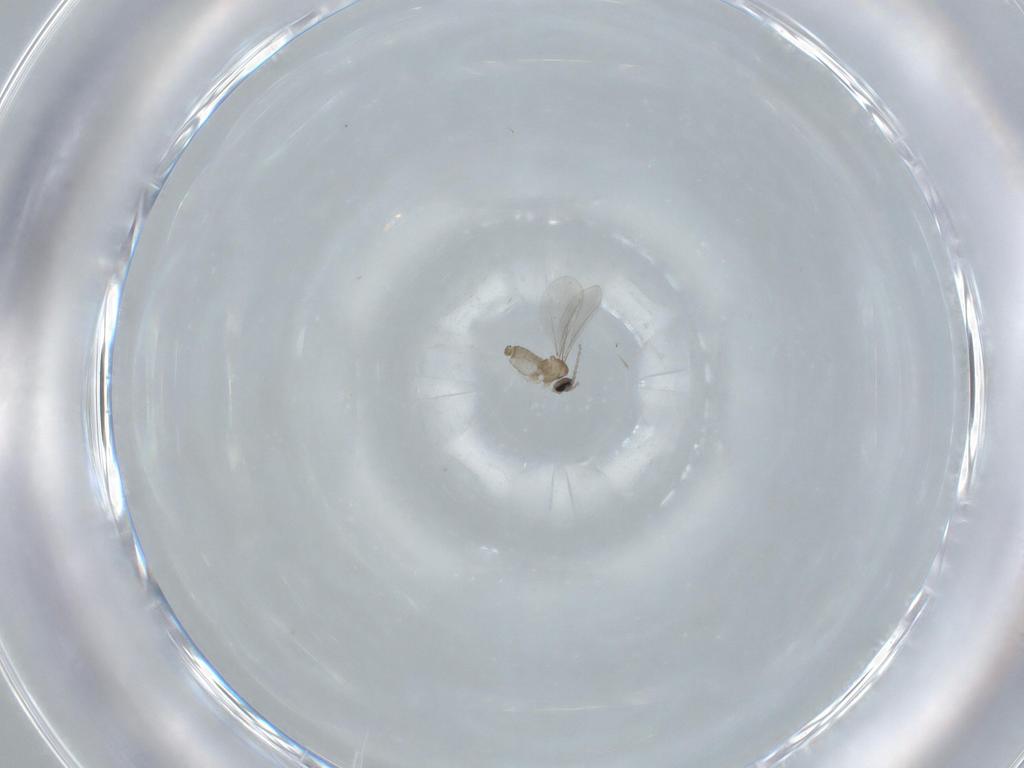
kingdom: Animalia
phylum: Arthropoda
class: Insecta
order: Diptera
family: Cecidomyiidae
